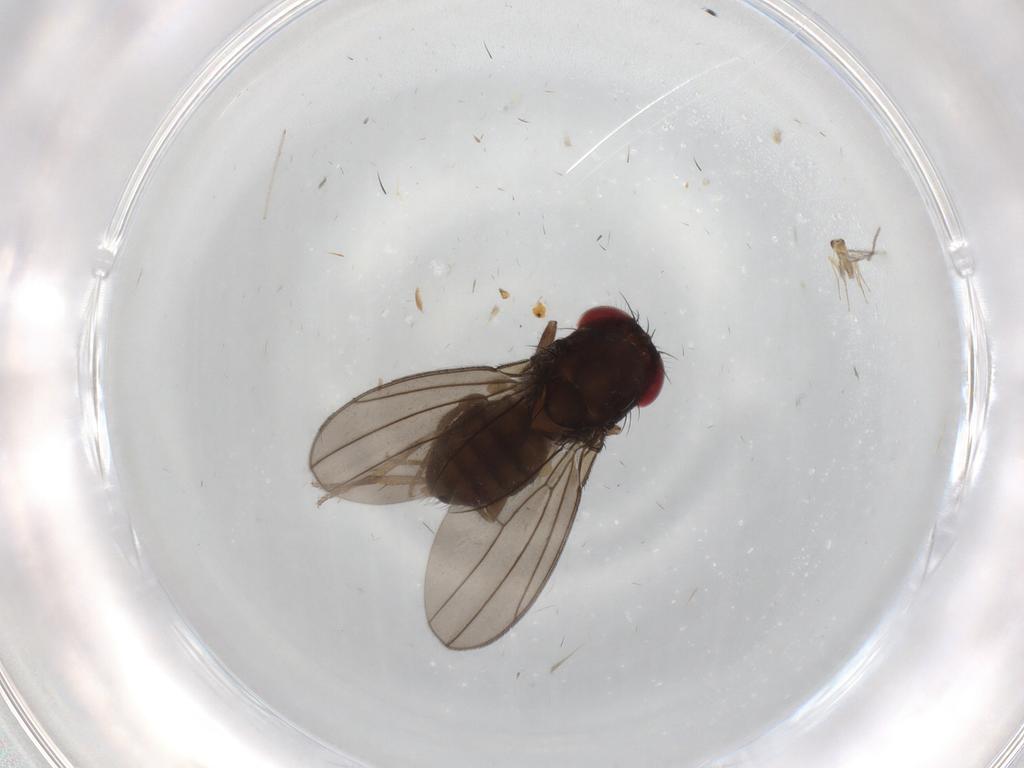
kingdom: Animalia
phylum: Arthropoda
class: Insecta
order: Diptera
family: Drosophilidae
